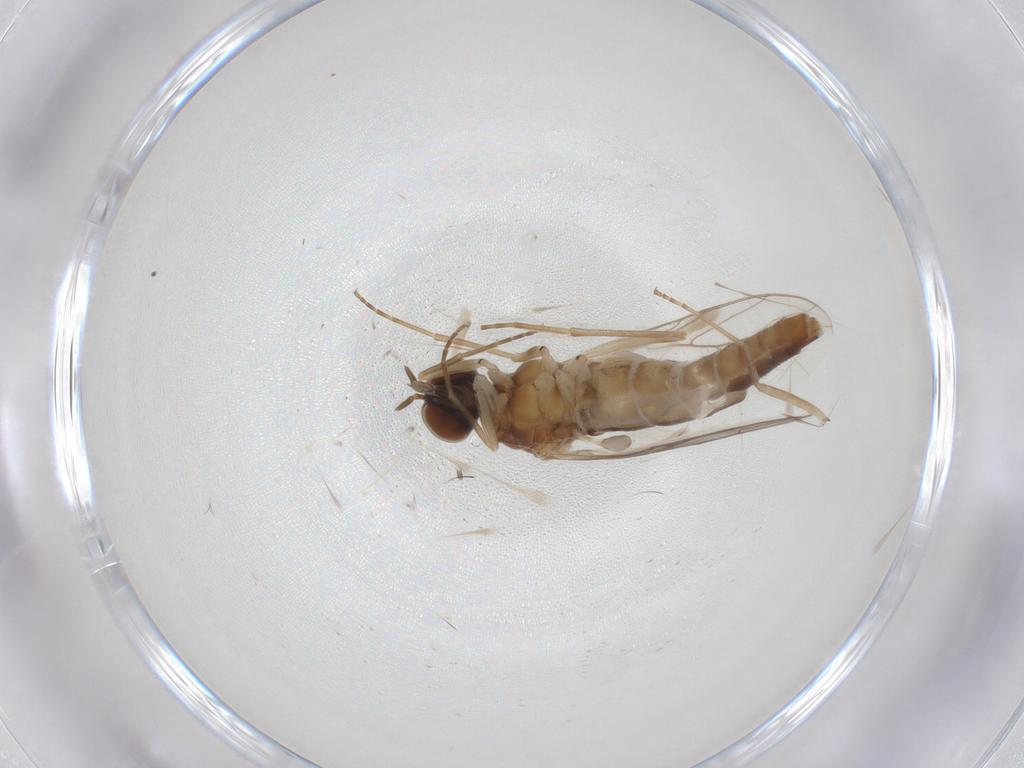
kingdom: Animalia
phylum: Arthropoda
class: Insecta
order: Diptera
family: Scenopinidae
